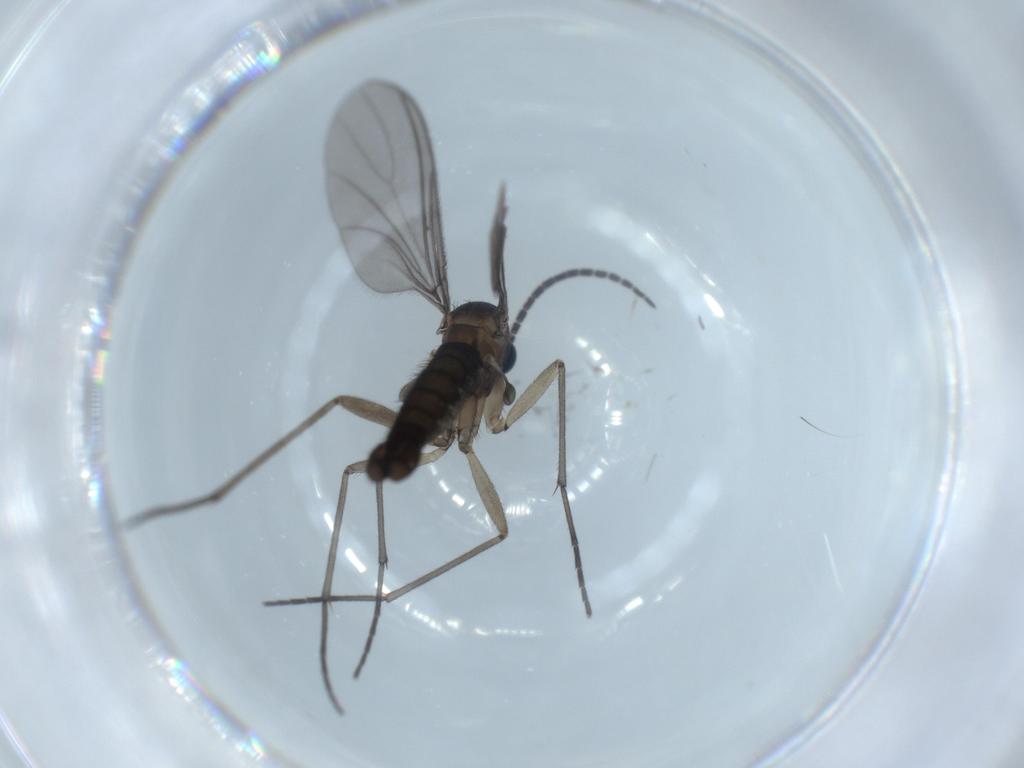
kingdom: Animalia
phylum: Arthropoda
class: Insecta
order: Diptera
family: Sciaridae
